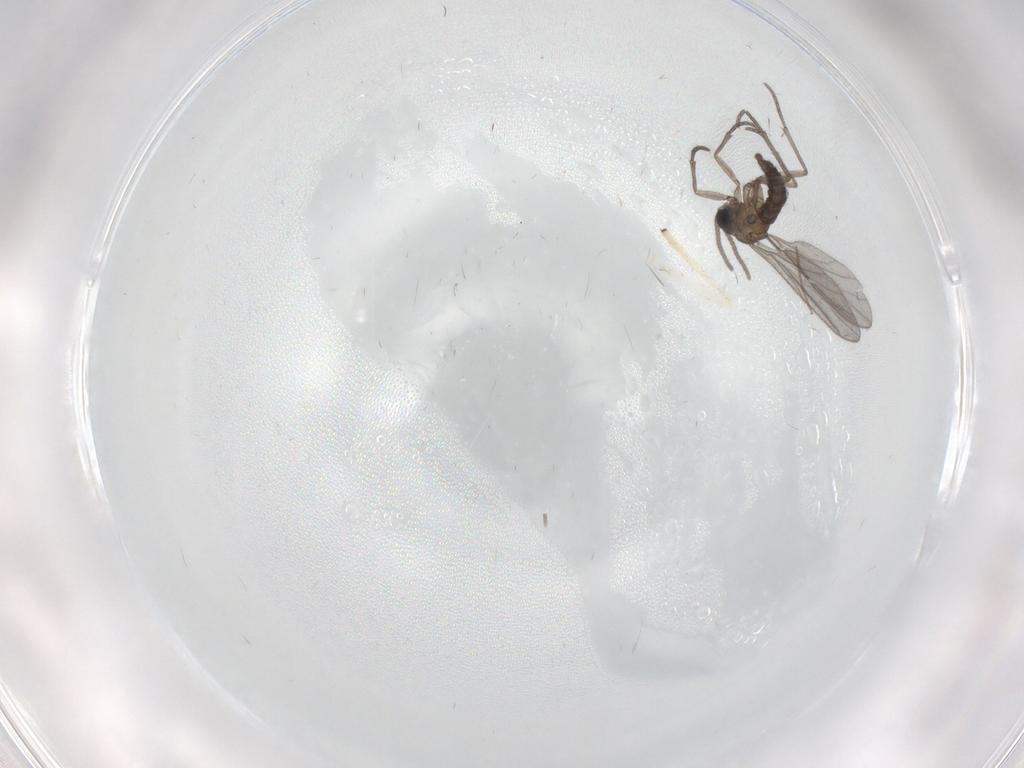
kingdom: Animalia
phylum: Arthropoda
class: Insecta
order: Diptera
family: Sciaridae
